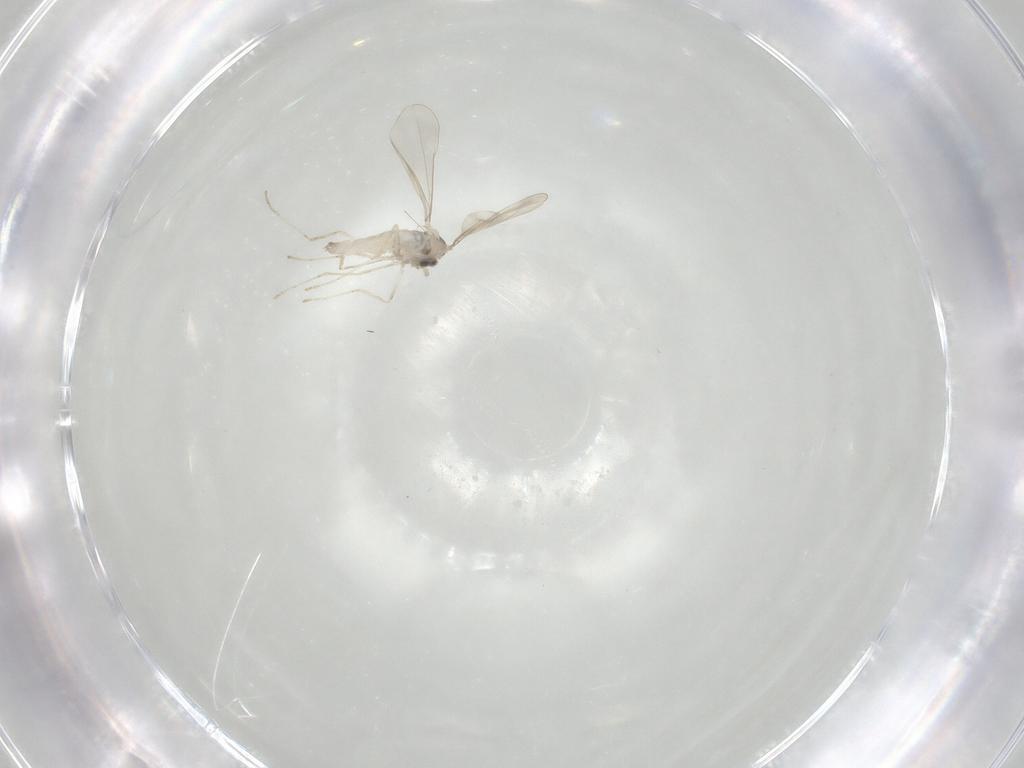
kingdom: Animalia
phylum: Arthropoda
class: Insecta
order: Diptera
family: Cecidomyiidae
